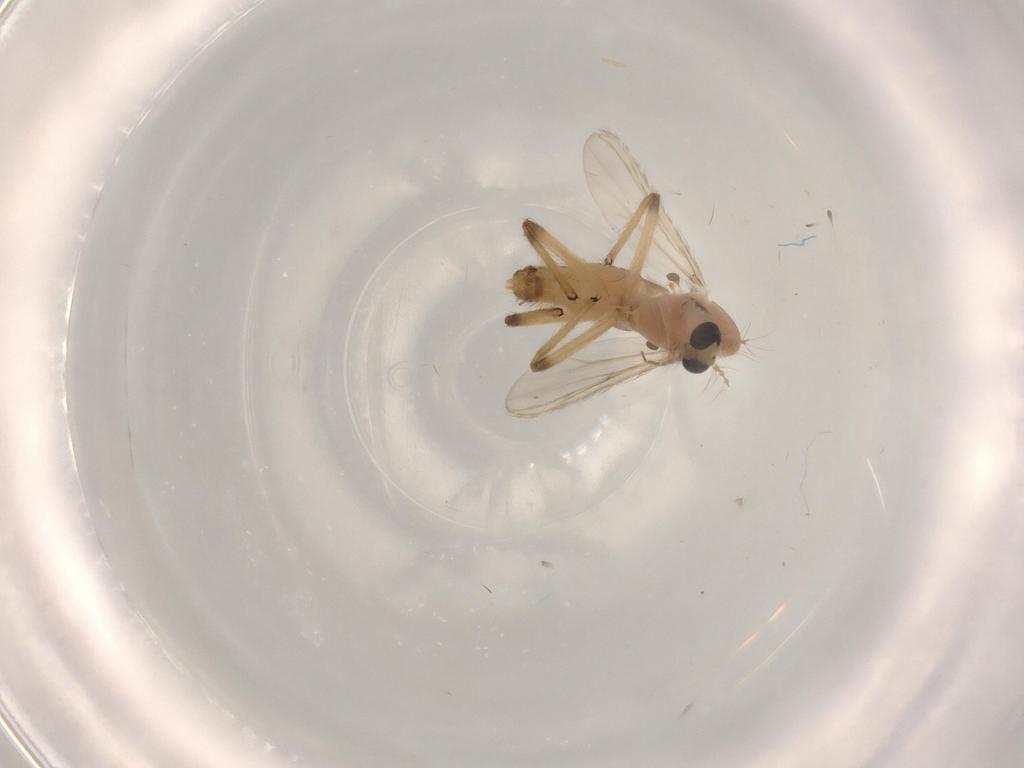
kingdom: Animalia
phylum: Arthropoda
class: Insecta
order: Diptera
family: Chironomidae
